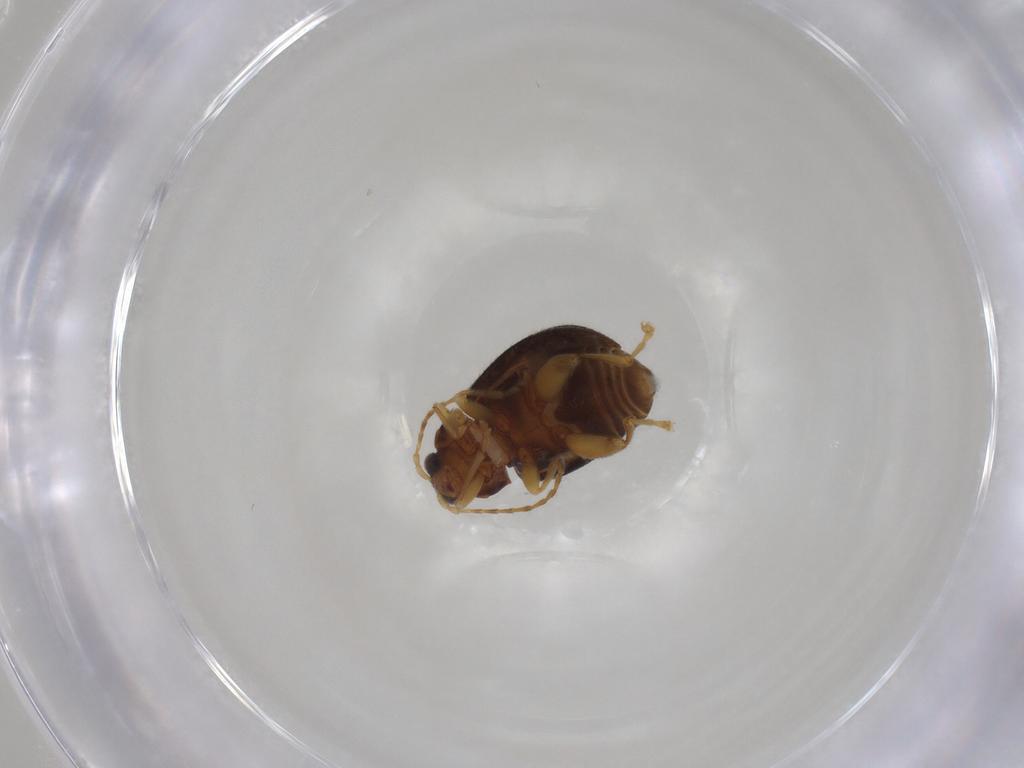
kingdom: Animalia
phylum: Arthropoda
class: Insecta
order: Coleoptera
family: Chrysomelidae
